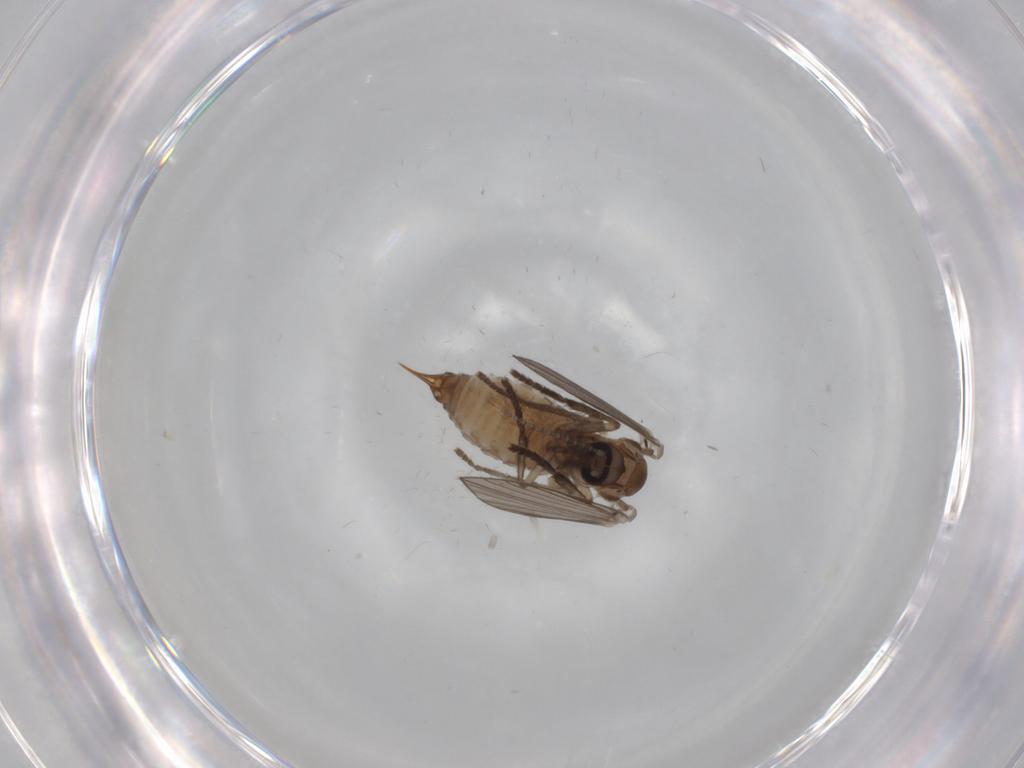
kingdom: Animalia
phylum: Arthropoda
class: Insecta
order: Diptera
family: Psychodidae
